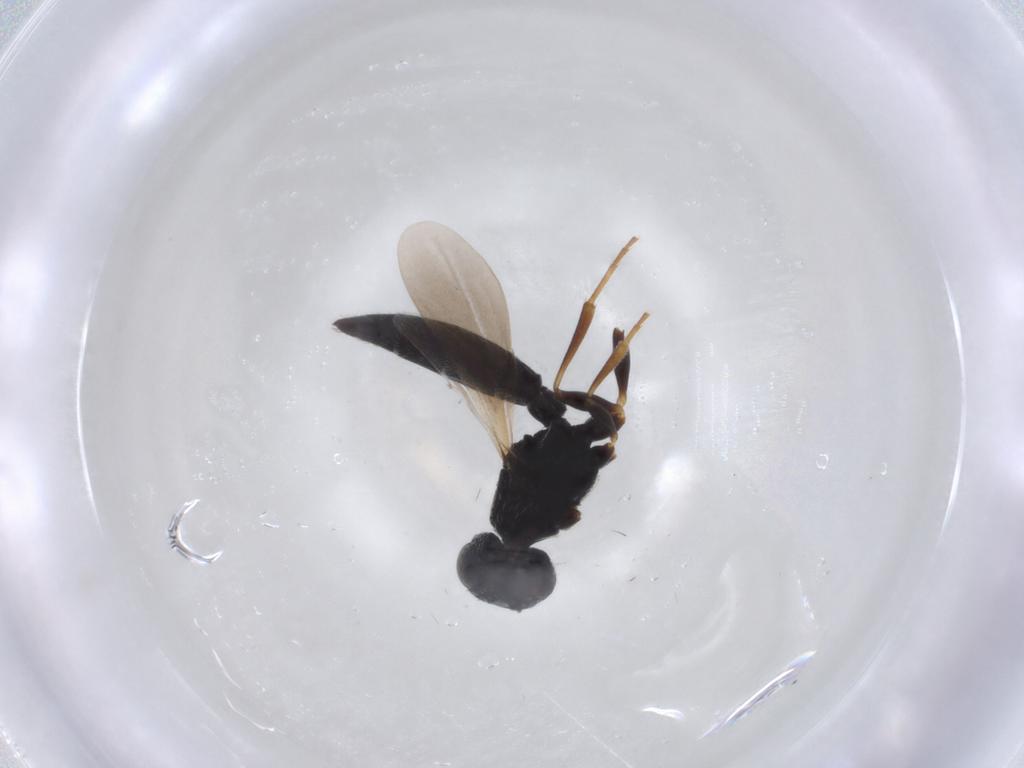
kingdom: Animalia
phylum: Arthropoda
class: Insecta
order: Hymenoptera
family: Scelionidae
